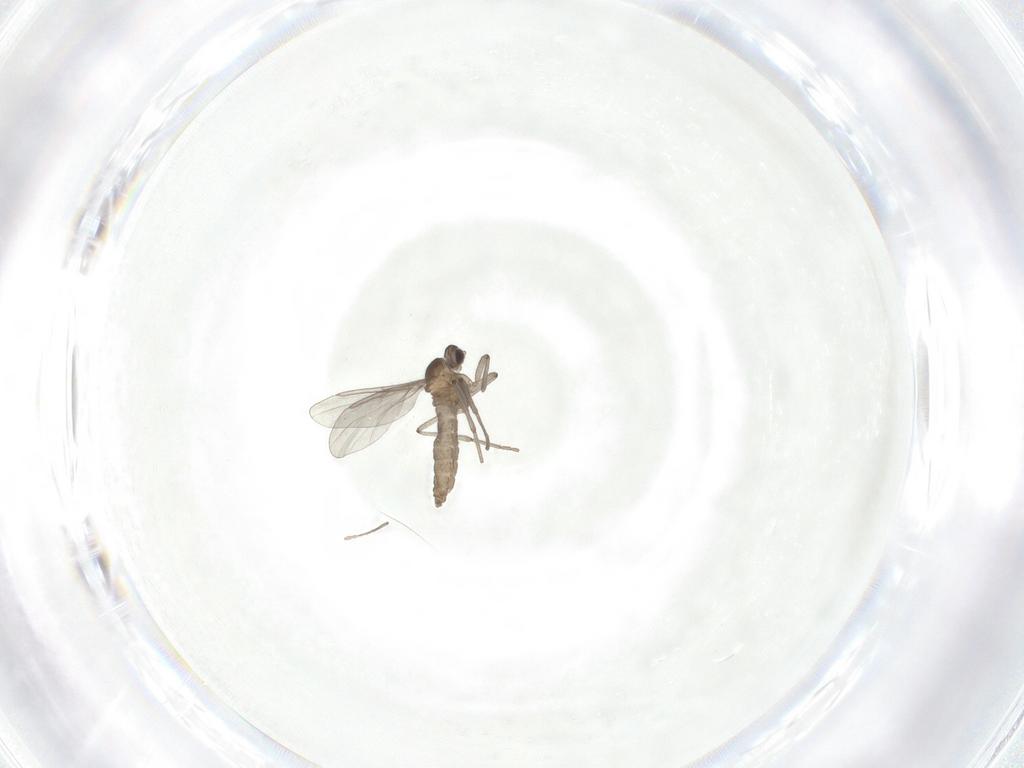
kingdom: Animalia
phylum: Arthropoda
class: Insecta
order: Diptera
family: Cecidomyiidae
